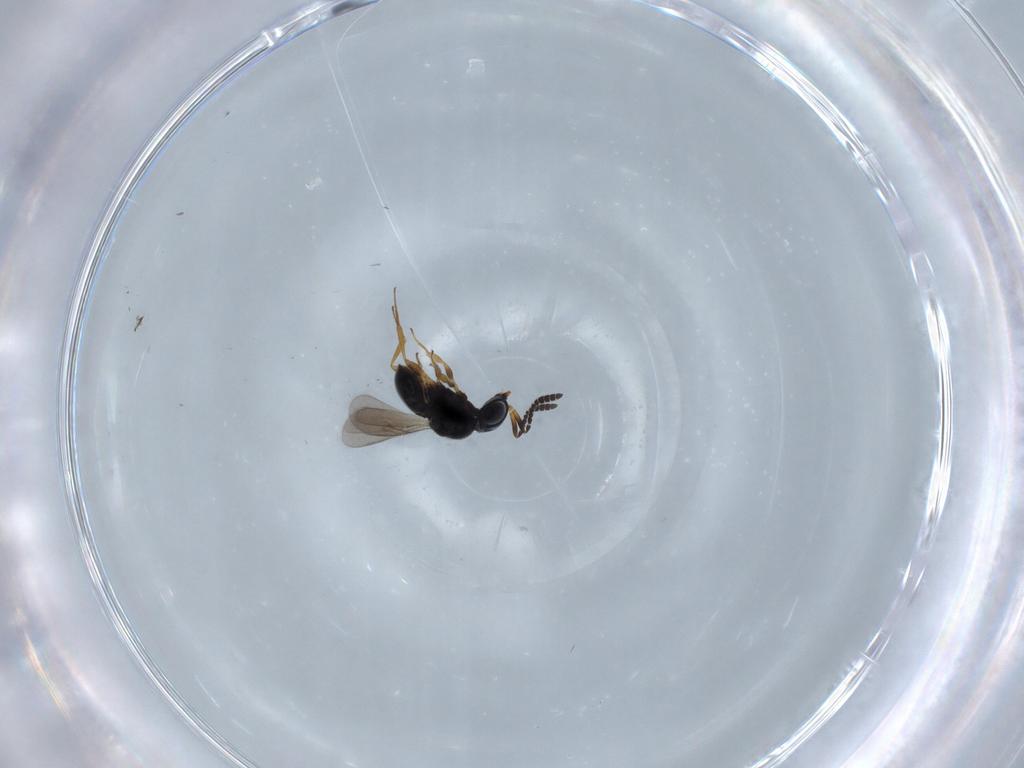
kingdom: Animalia
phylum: Arthropoda
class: Insecta
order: Hymenoptera
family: Scelionidae
